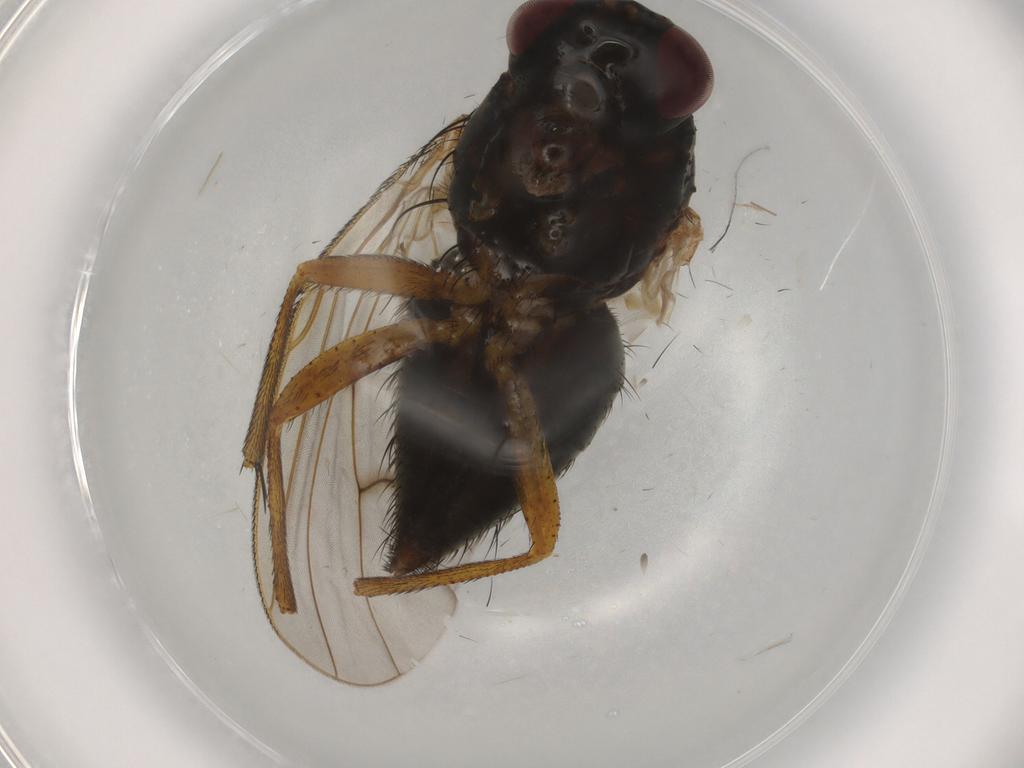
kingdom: Animalia
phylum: Arthropoda
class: Insecta
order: Diptera
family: Muscidae
